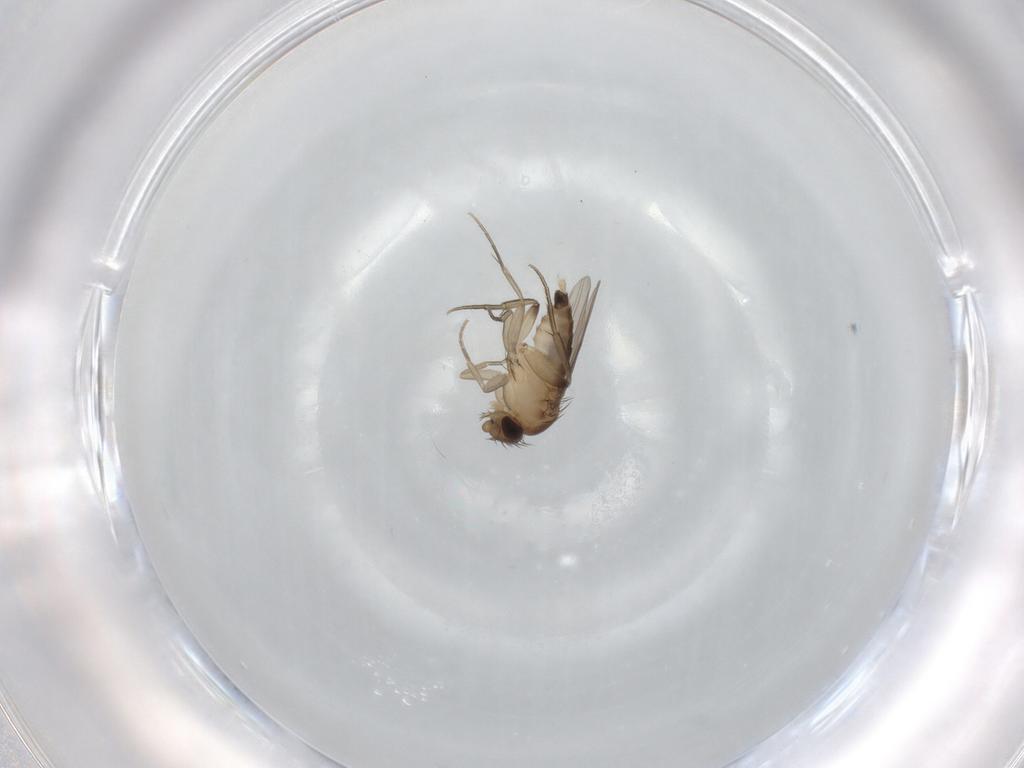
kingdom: Animalia
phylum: Arthropoda
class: Insecta
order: Diptera
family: Phoridae
